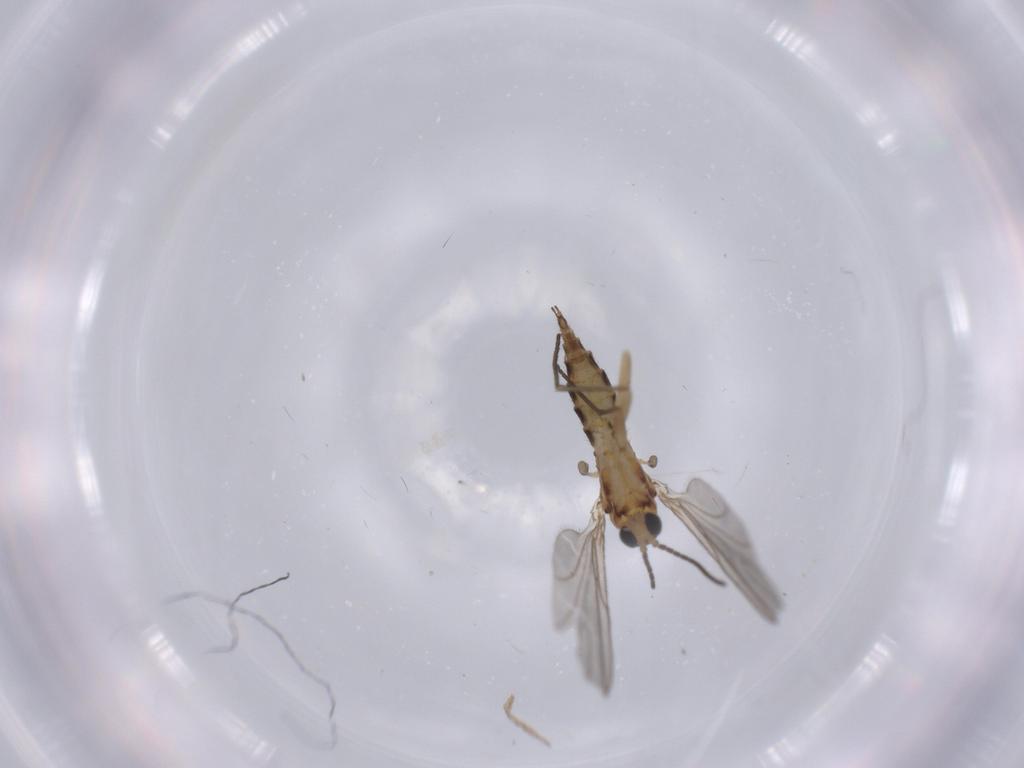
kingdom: Animalia
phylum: Arthropoda
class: Insecta
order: Diptera
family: Sciaridae
